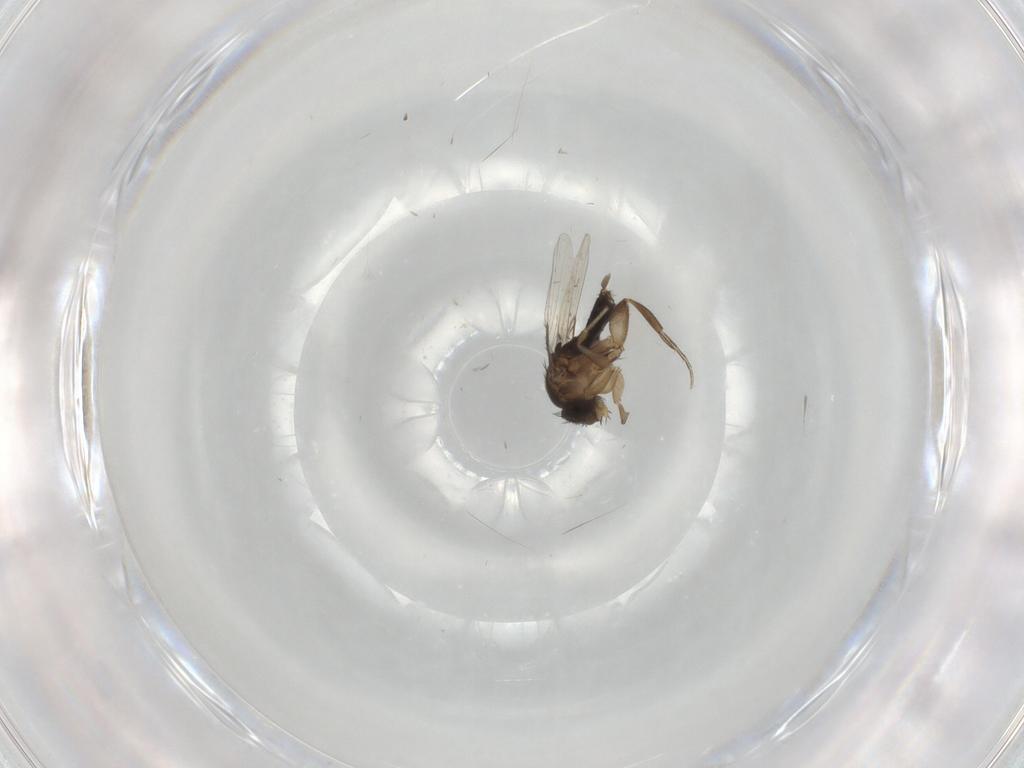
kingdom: Animalia
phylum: Arthropoda
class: Insecta
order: Diptera
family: Phoridae
